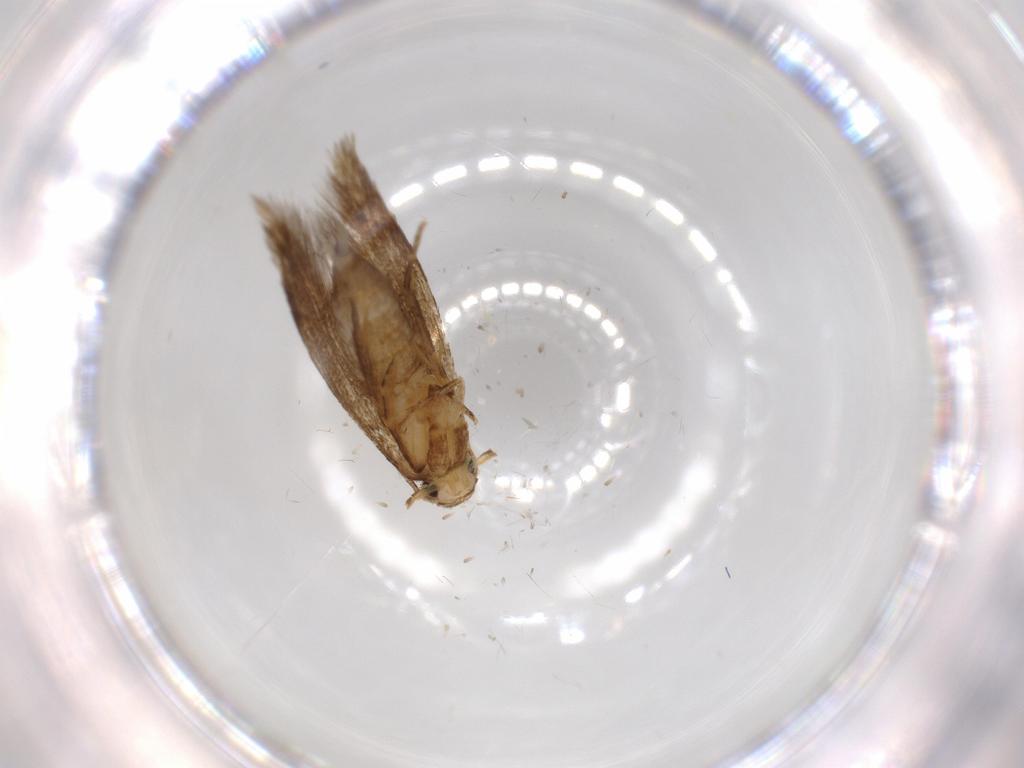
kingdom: Animalia
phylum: Arthropoda
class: Insecta
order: Lepidoptera
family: Tineidae
